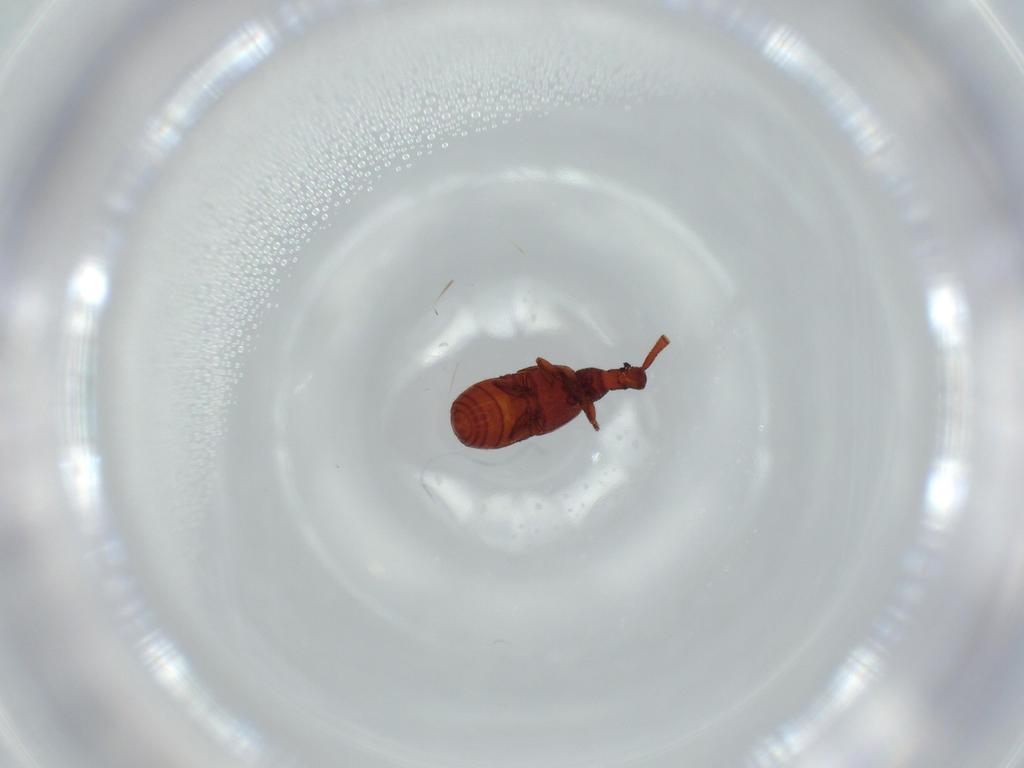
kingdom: Animalia
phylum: Arthropoda
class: Insecta
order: Coleoptera
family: Staphylinidae
